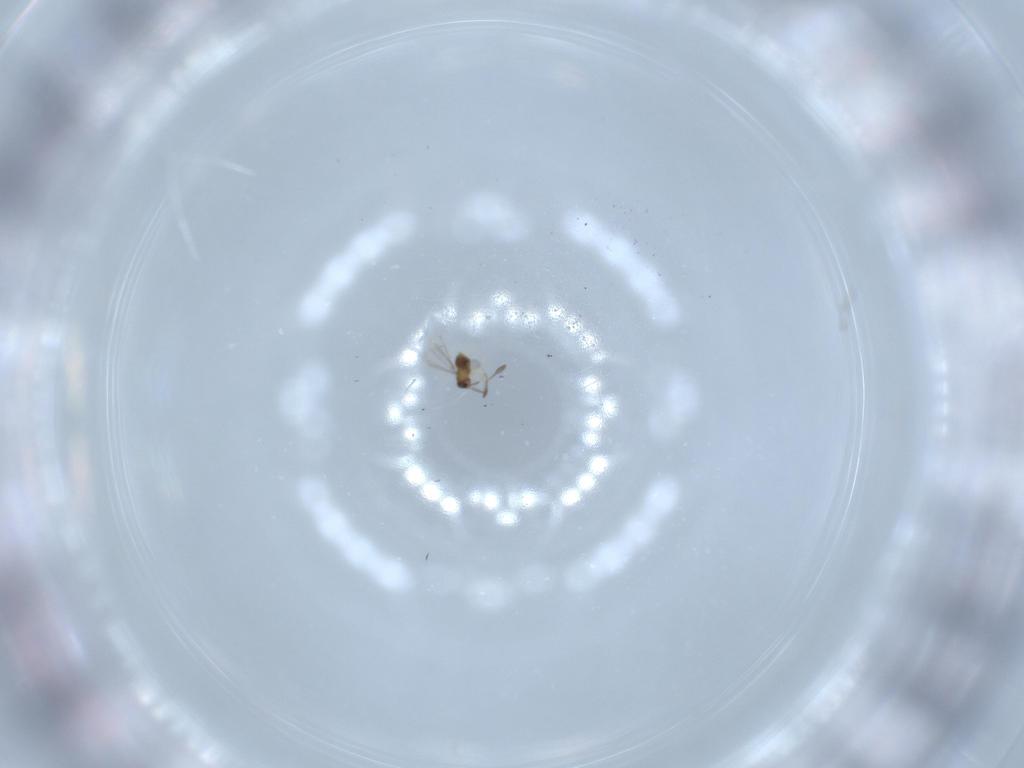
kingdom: Animalia
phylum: Arthropoda
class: Insecta
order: Hymenoptera
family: Mymaridae
